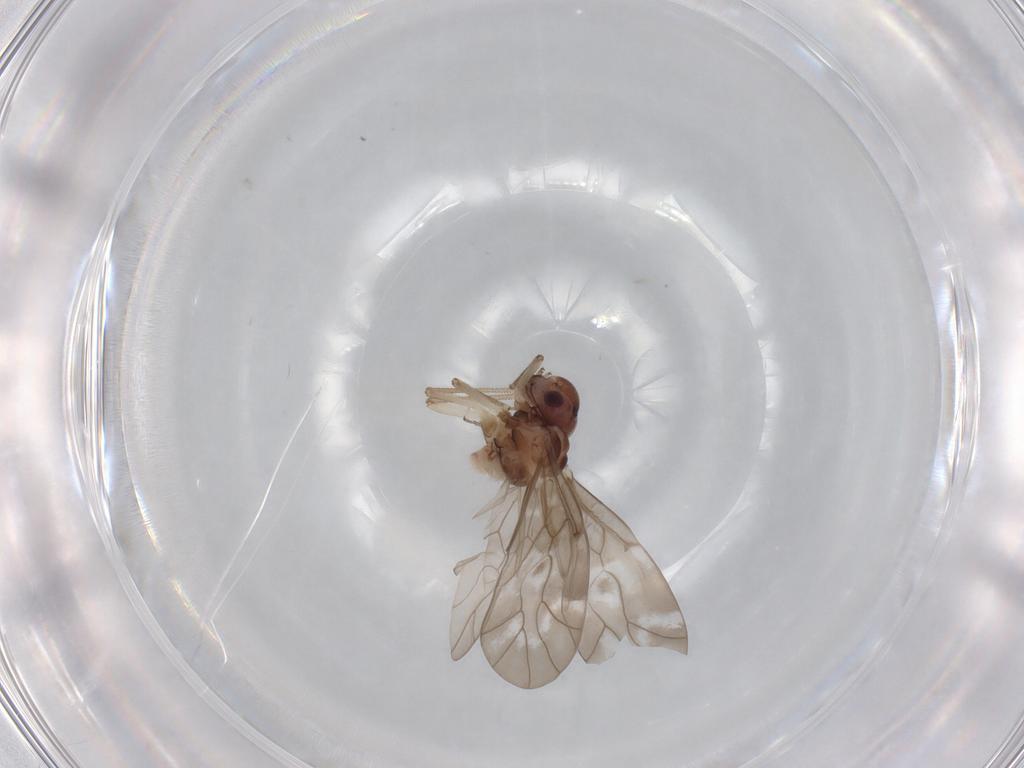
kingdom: Animalia
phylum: Arthropoda
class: Insecta
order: Psocodea
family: Peripsocidae
